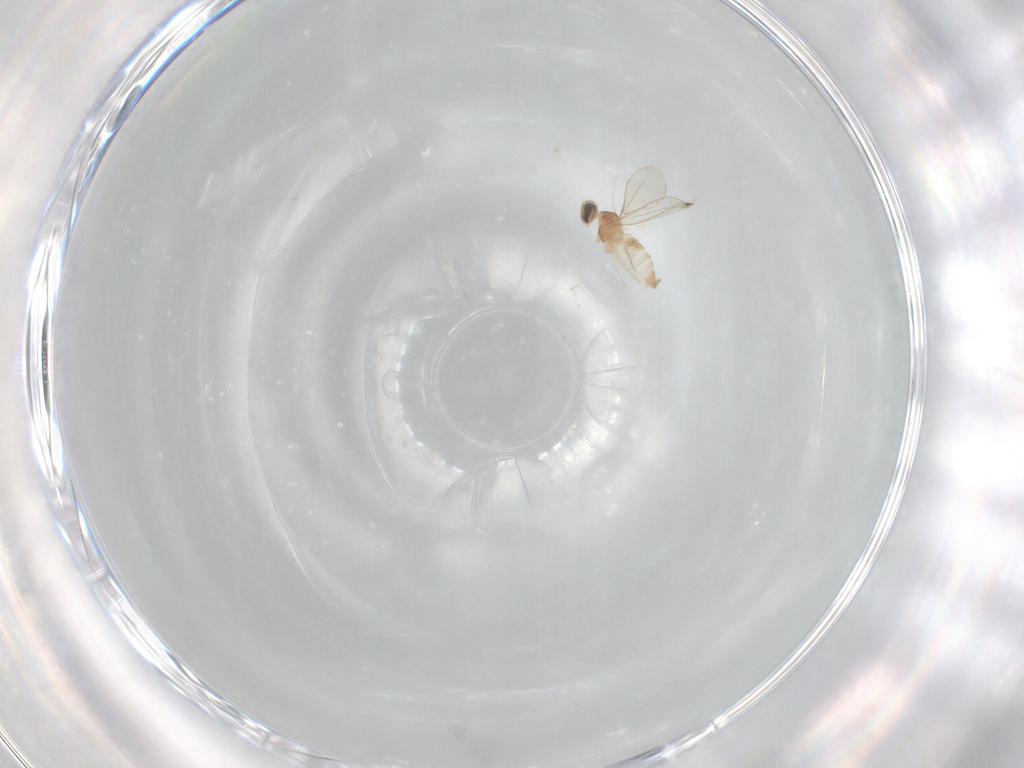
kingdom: Animalia
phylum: Arthropoda
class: Insecta
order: Diptera
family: Cecidomyiidae
